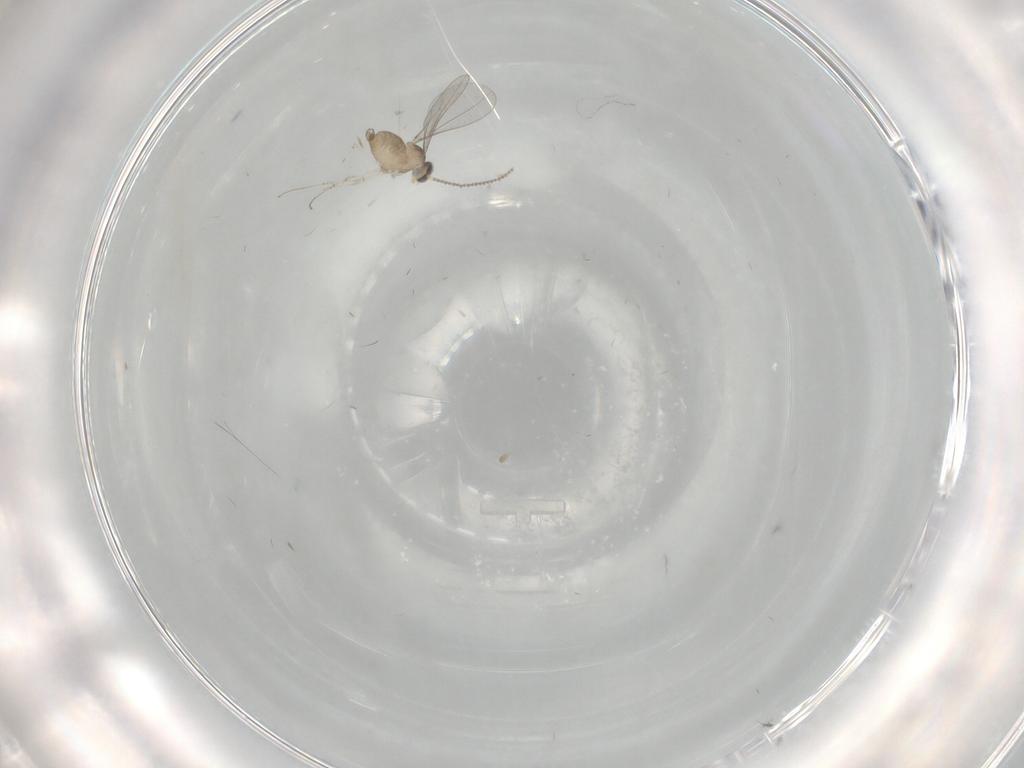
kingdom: Animalia
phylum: Arthropoda
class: Insecta
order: Diptera
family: Cecidomyiidae
